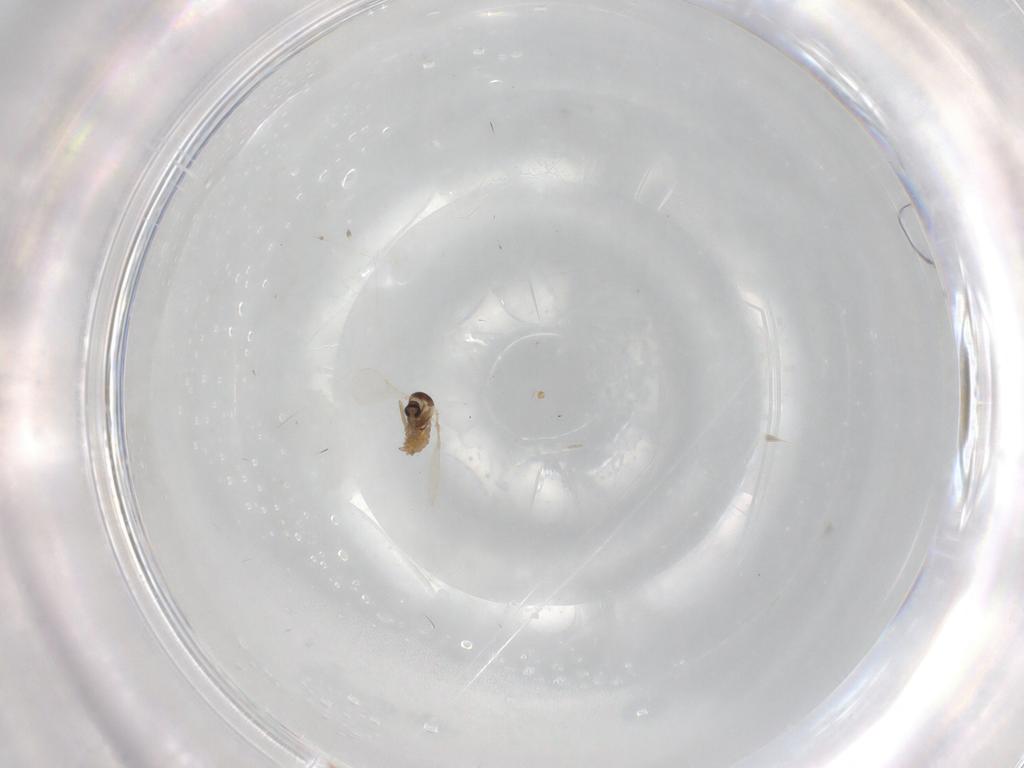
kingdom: Animalia
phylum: Arthropoda
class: Insecta
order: Diptera
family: Cecidomyiidae
